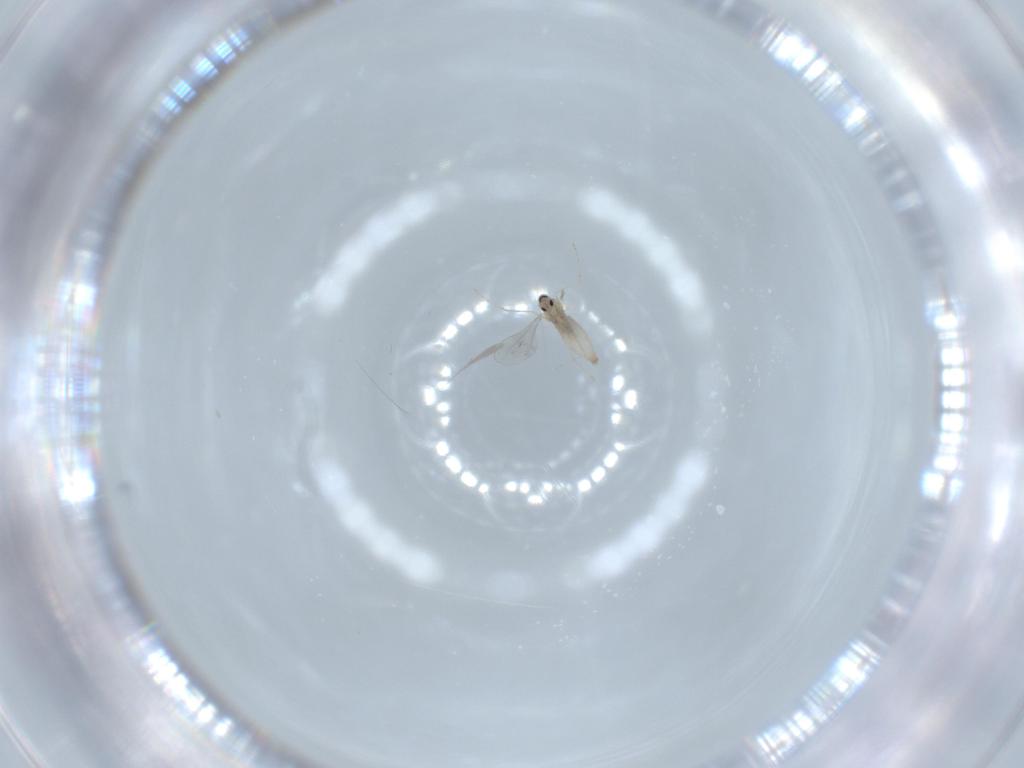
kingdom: Animalia
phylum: Arthropoda
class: Insecta
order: Diptera
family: Cecidomyiidae
